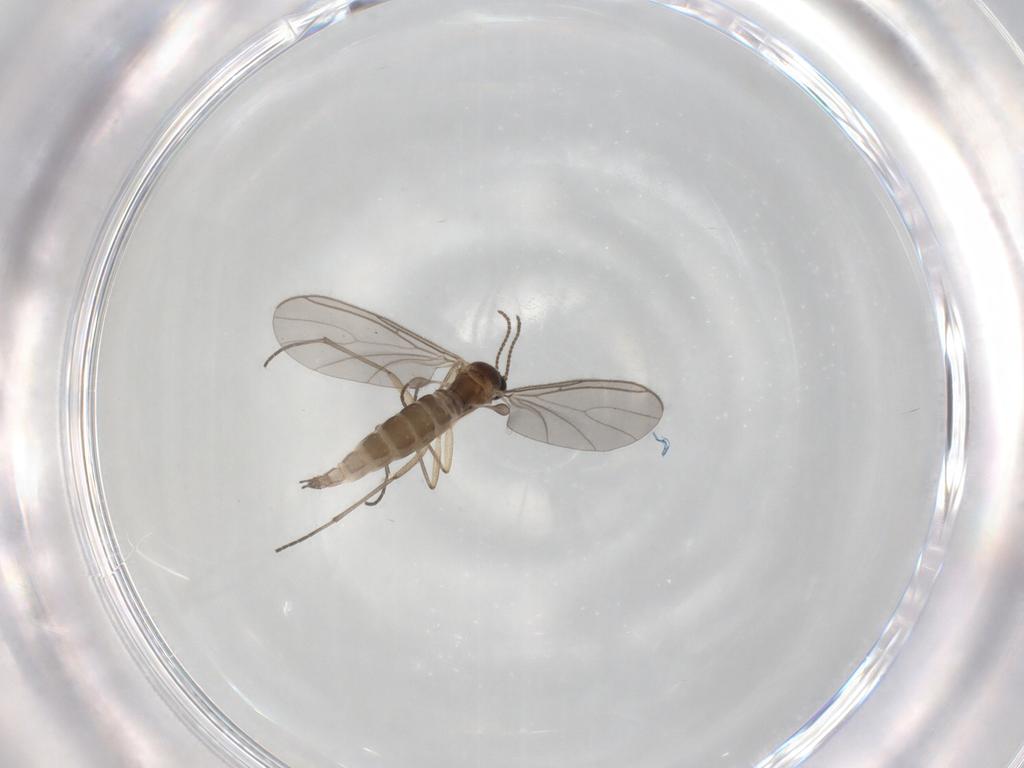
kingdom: Animalia
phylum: Arthropoda
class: Insecta
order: Diptera
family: Sciaridae
